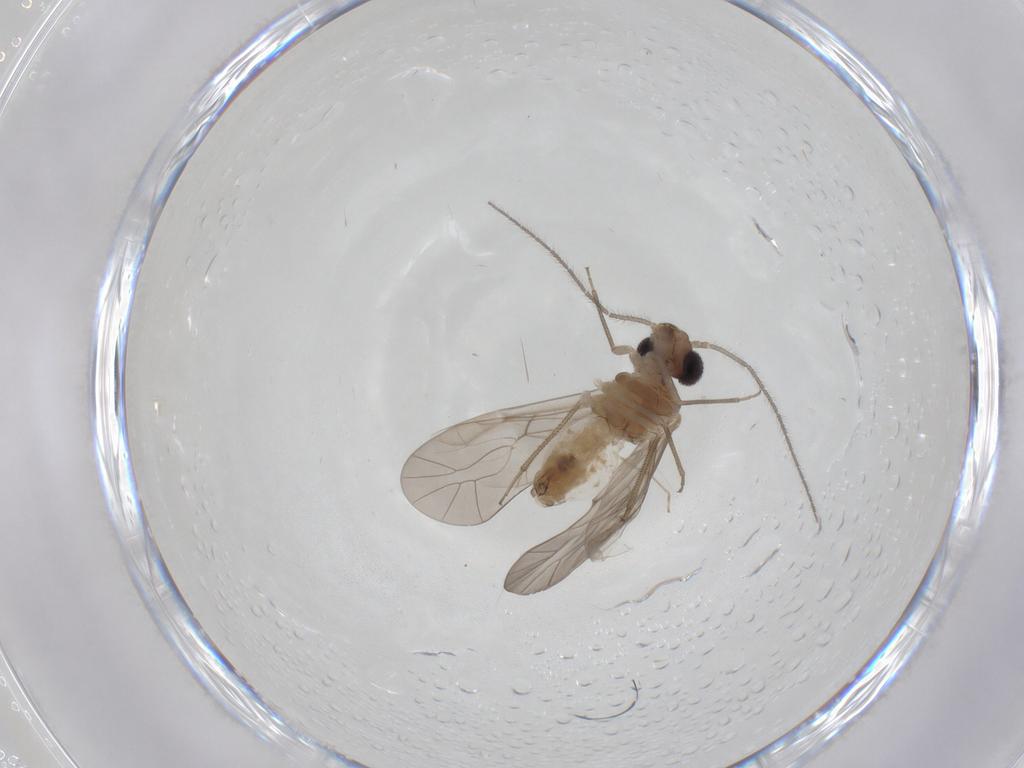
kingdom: Animalia
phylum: Arthropoda
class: Insecta
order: Psocodea
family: Peripsocidae
